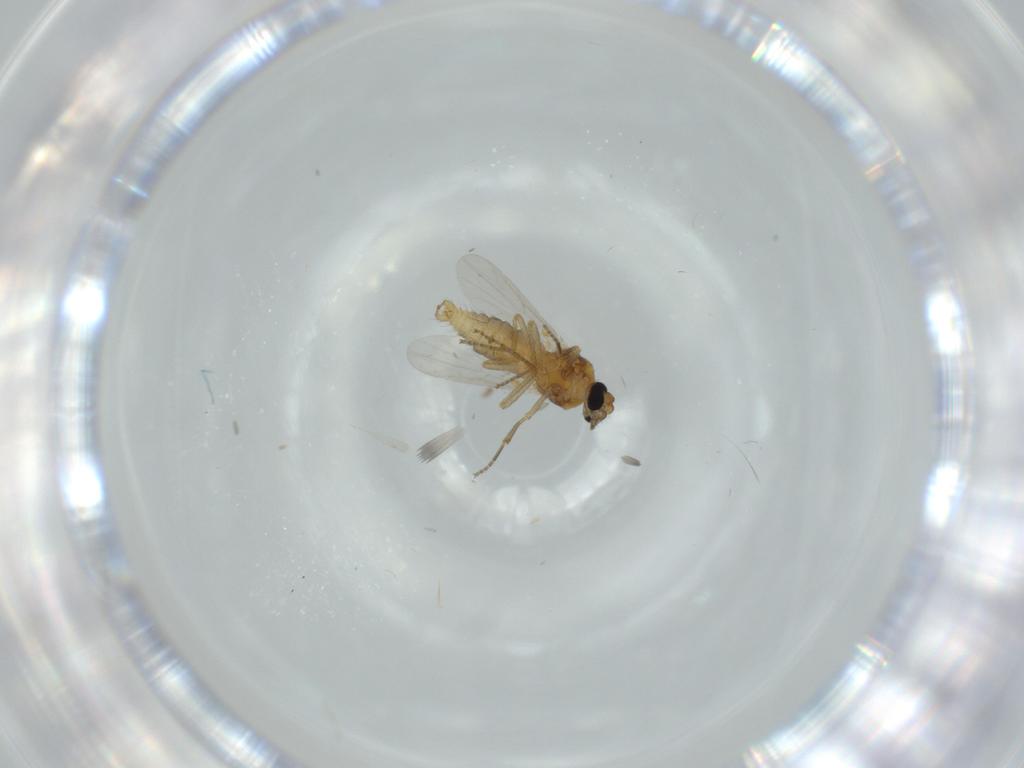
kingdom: Animalia
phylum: Arthropoda
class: Insecta
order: Diptera
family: Ceratopogonidae
